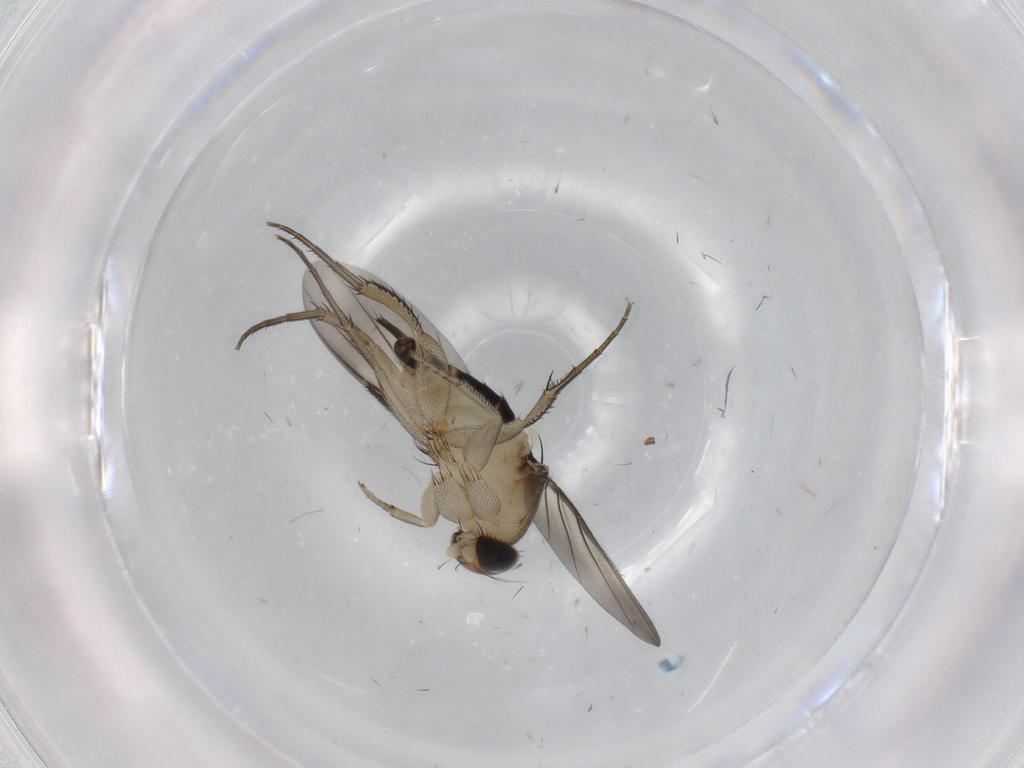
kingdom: Animalia
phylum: Arthropoda
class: Insecta
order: Diptera
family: Phoridae
